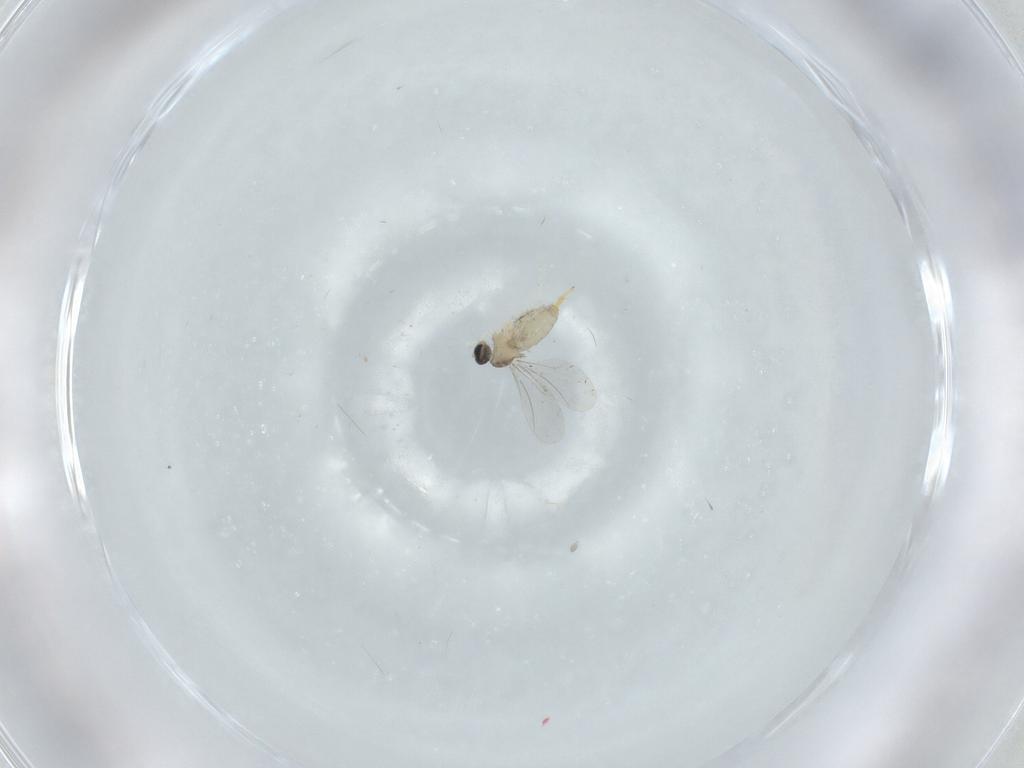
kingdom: Animalia
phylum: Arthropoda
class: Insecta
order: Diptera
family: Cecidomyiidae
